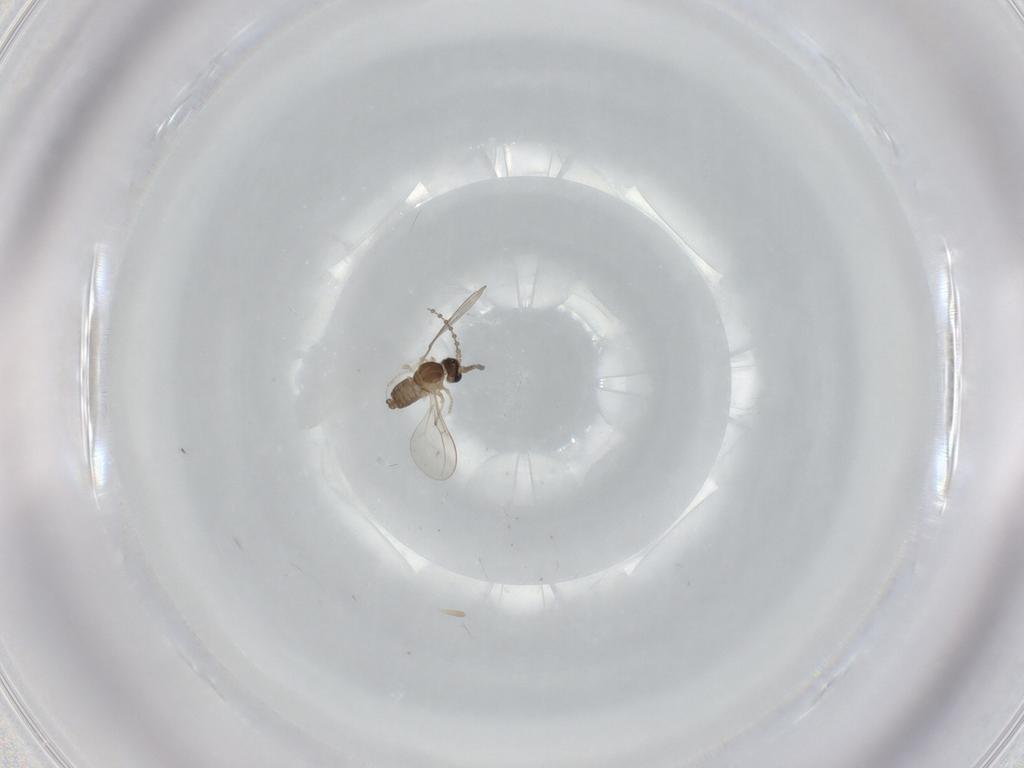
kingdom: Animalia
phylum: Arthropoda
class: Insecta
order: Diptera
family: Cecidomyiidae
